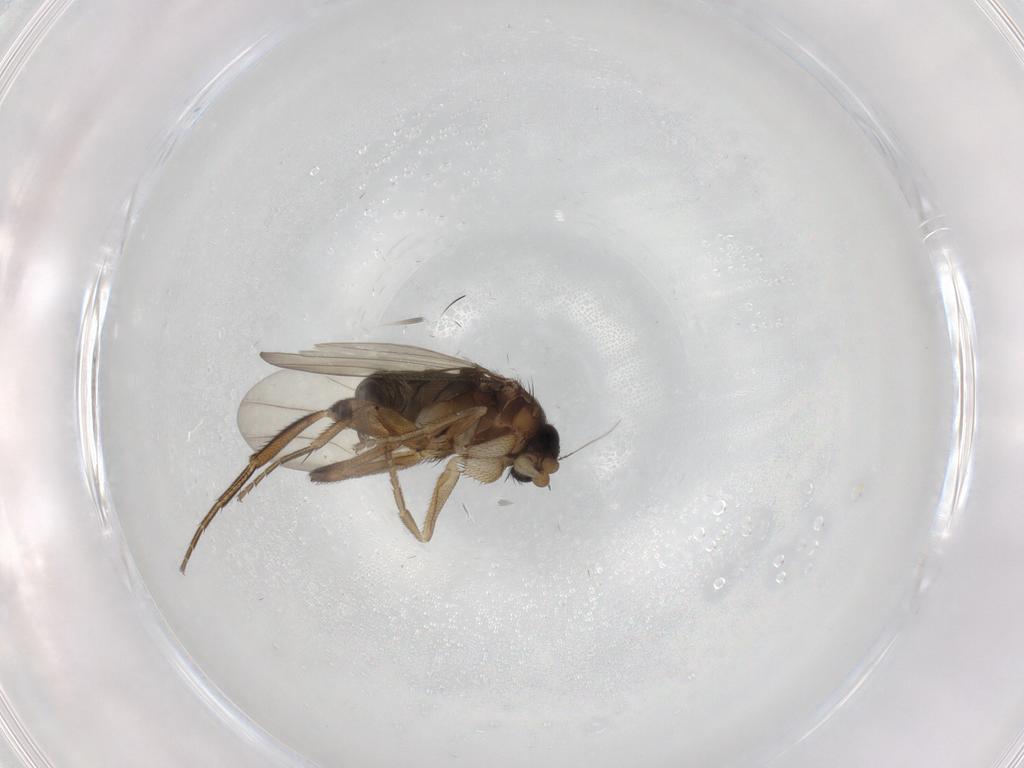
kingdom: Animalia
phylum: Arthropoda
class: Insecta
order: Diptera
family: Phoridae
